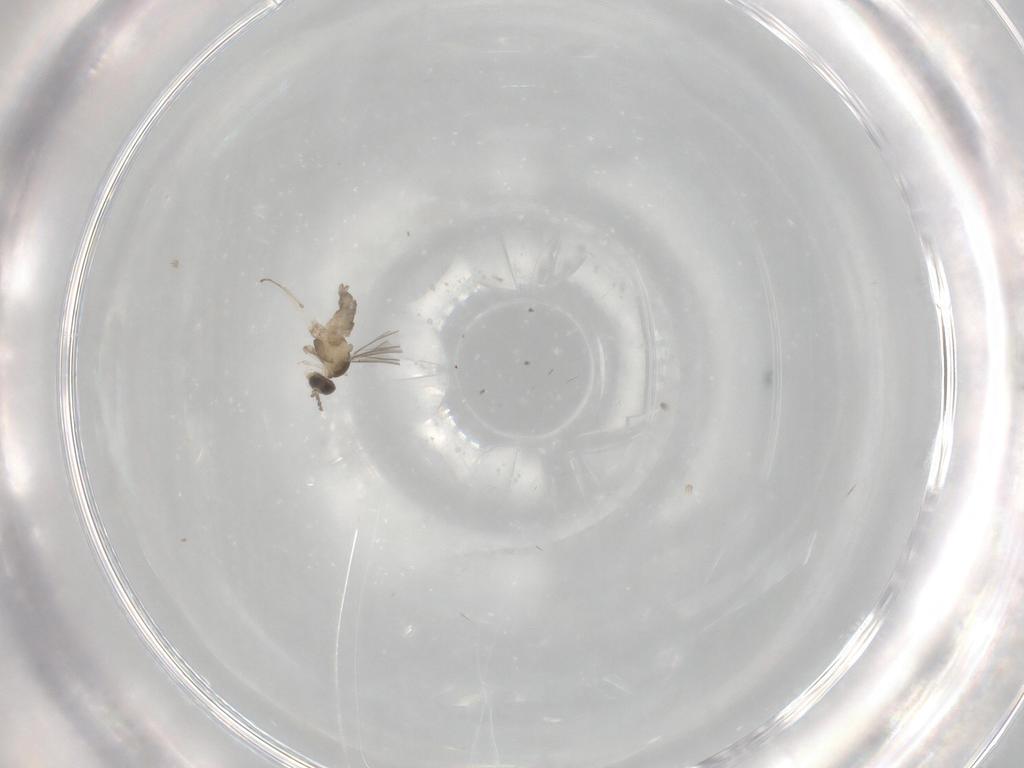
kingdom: Animalia
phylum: Arthropoda
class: Insecta
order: Diptera
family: Cecidomyiidae
